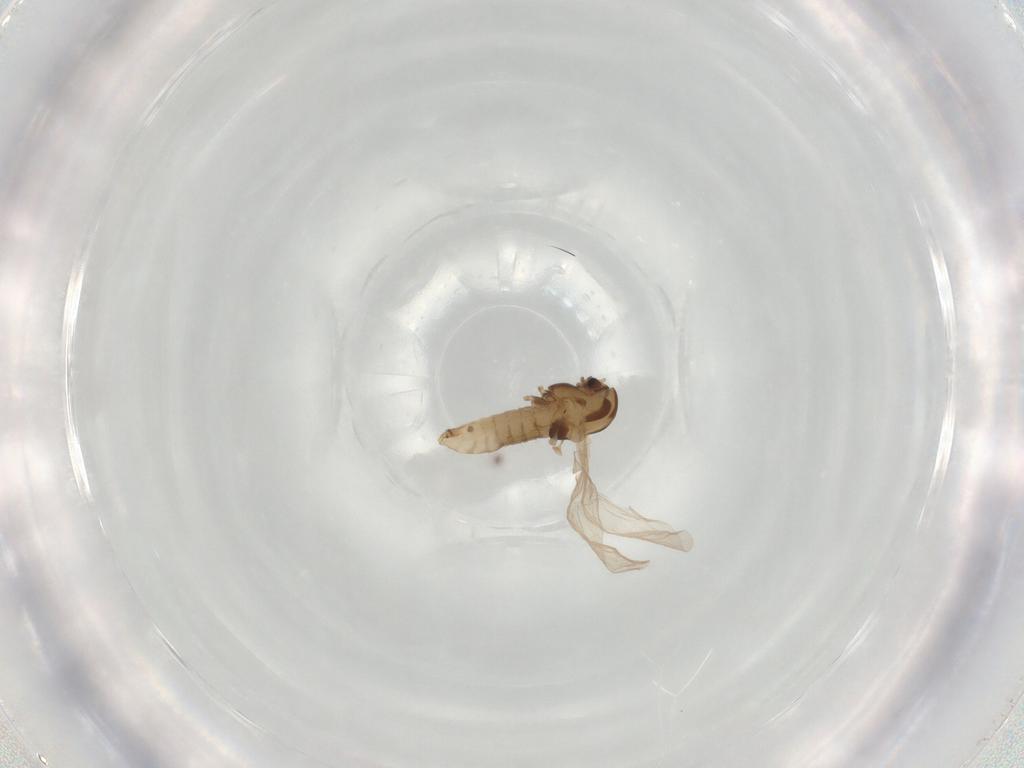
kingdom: Animalia
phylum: Arthropoda
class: Insecta
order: Diptera
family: Chironomidae
